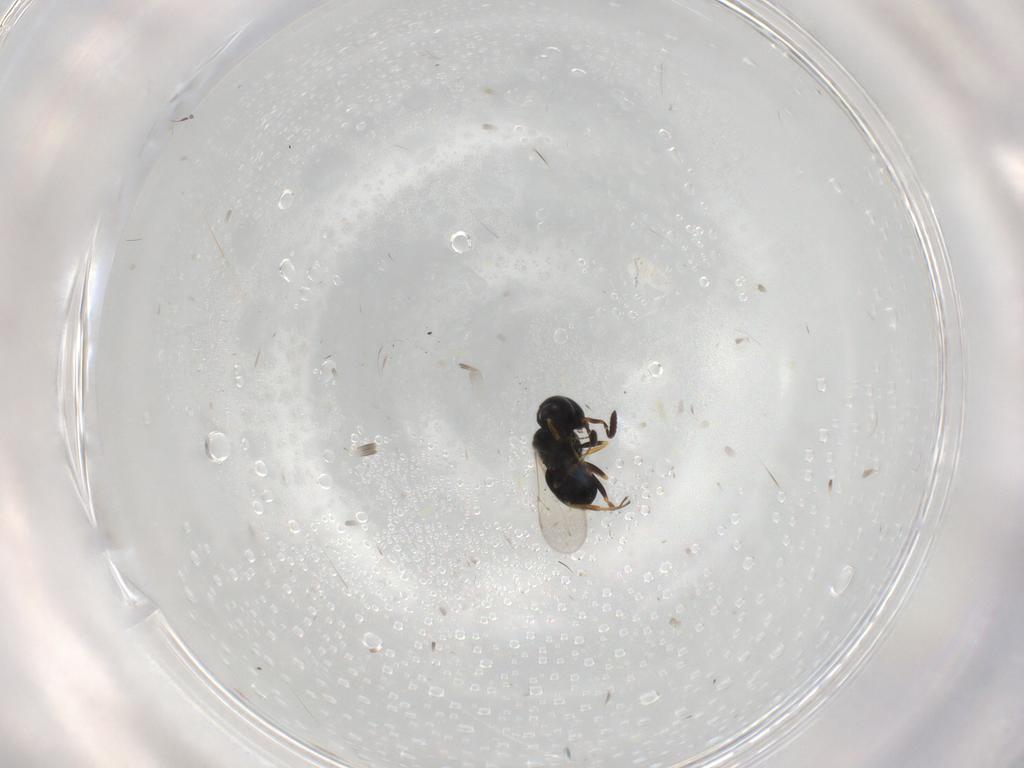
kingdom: Animalia
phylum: Arthropoda
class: Insecta
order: Coleoptera
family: Curculionidae
